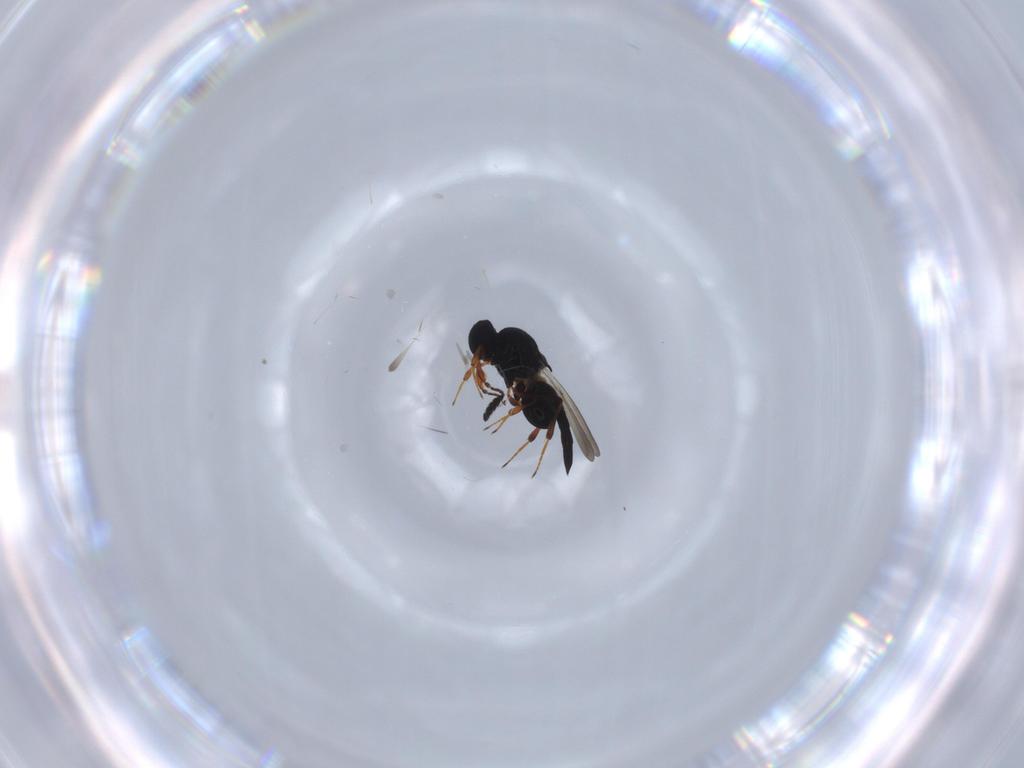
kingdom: Animalia
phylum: Arthropoda
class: Insecta
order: Hymenoptera
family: Platygastridae
